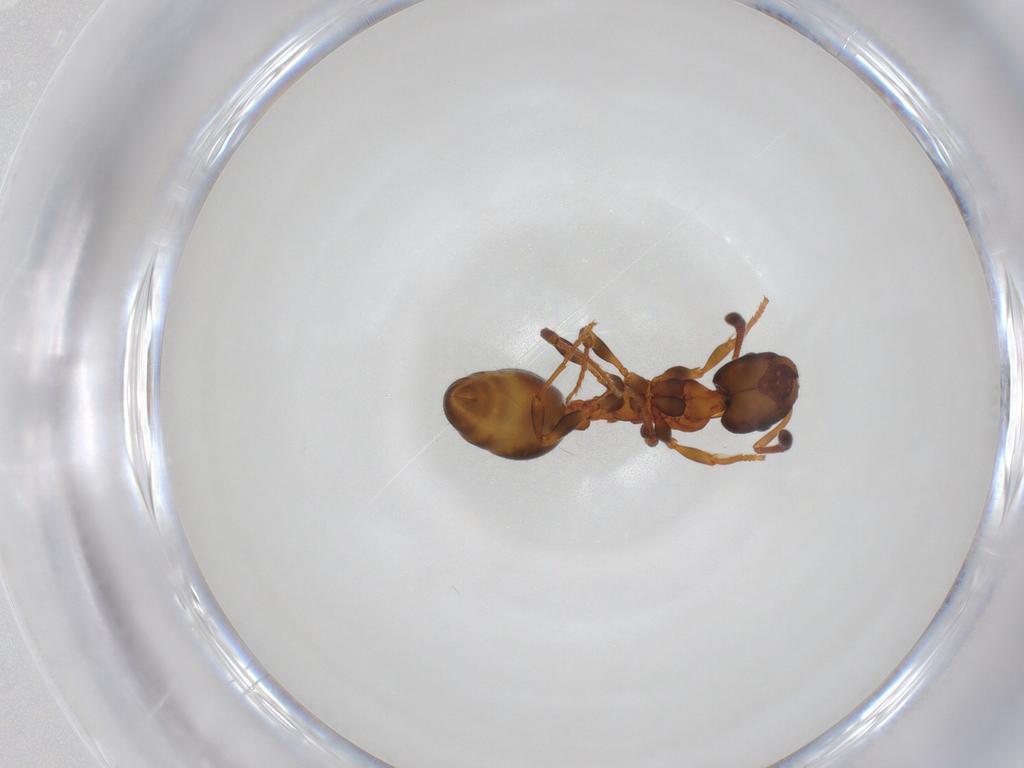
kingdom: Animalia
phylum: Arthropoda
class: Insecta
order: Hymenoptera
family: Formicidae
